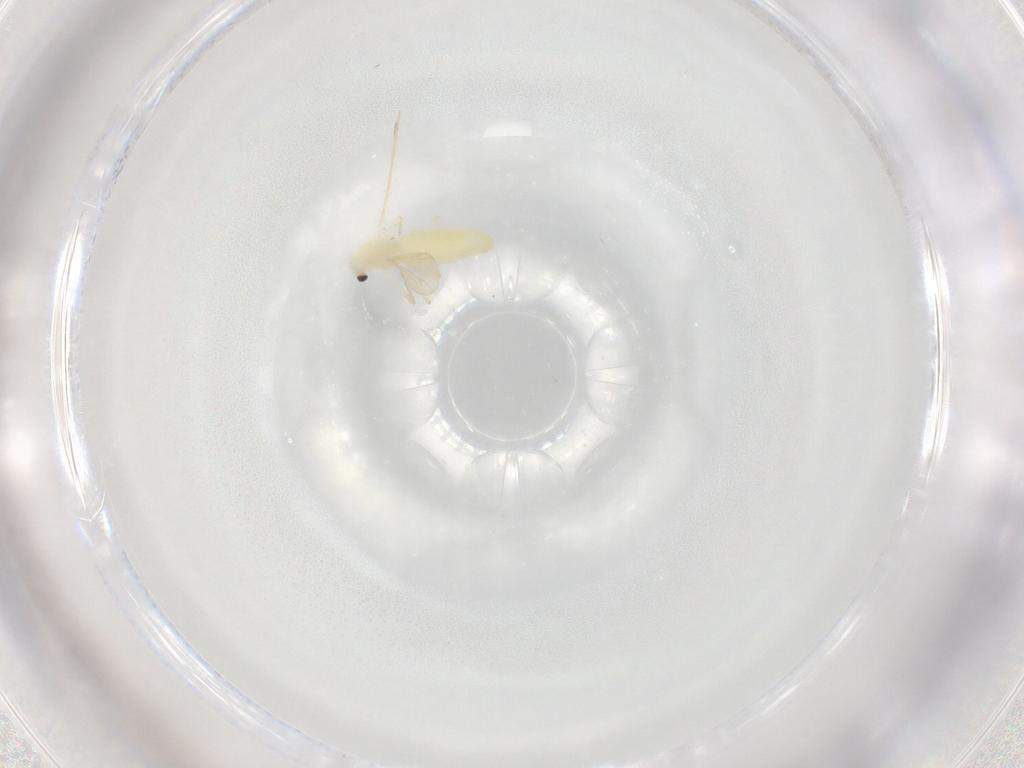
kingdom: Animalia
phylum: Arthropoda
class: Insecta
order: Diptera
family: Chironomidae
